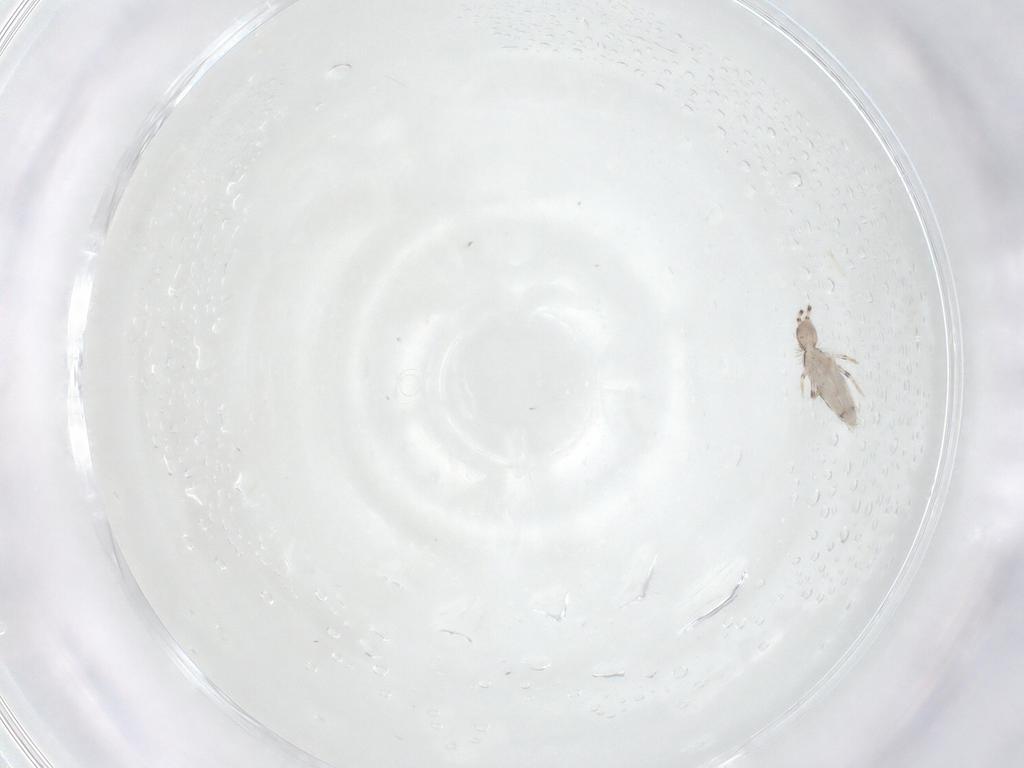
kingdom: Animalia
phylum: Arthropoda
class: Collembola
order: Entomobryomorpha
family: Entomobryidae
